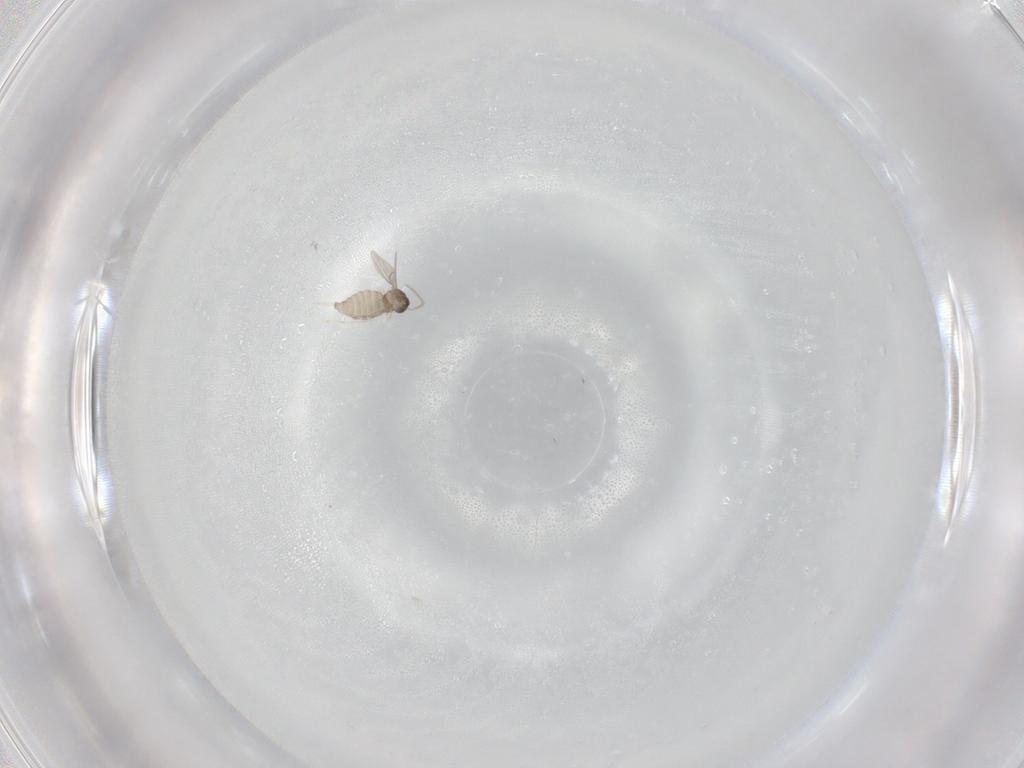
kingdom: Animalia
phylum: Arthropoda
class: Insecta
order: Diptera
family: Cecidomyiidae
